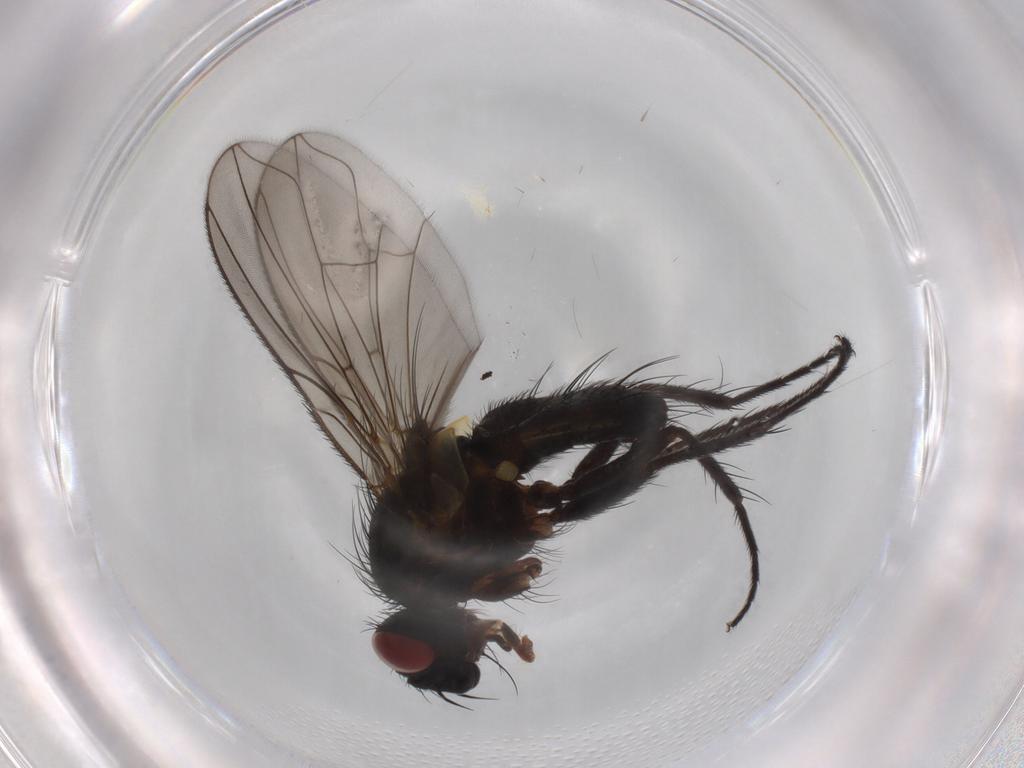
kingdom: Animalia
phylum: Arthropoda
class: Insecta
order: Diptera
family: Tachinidae
